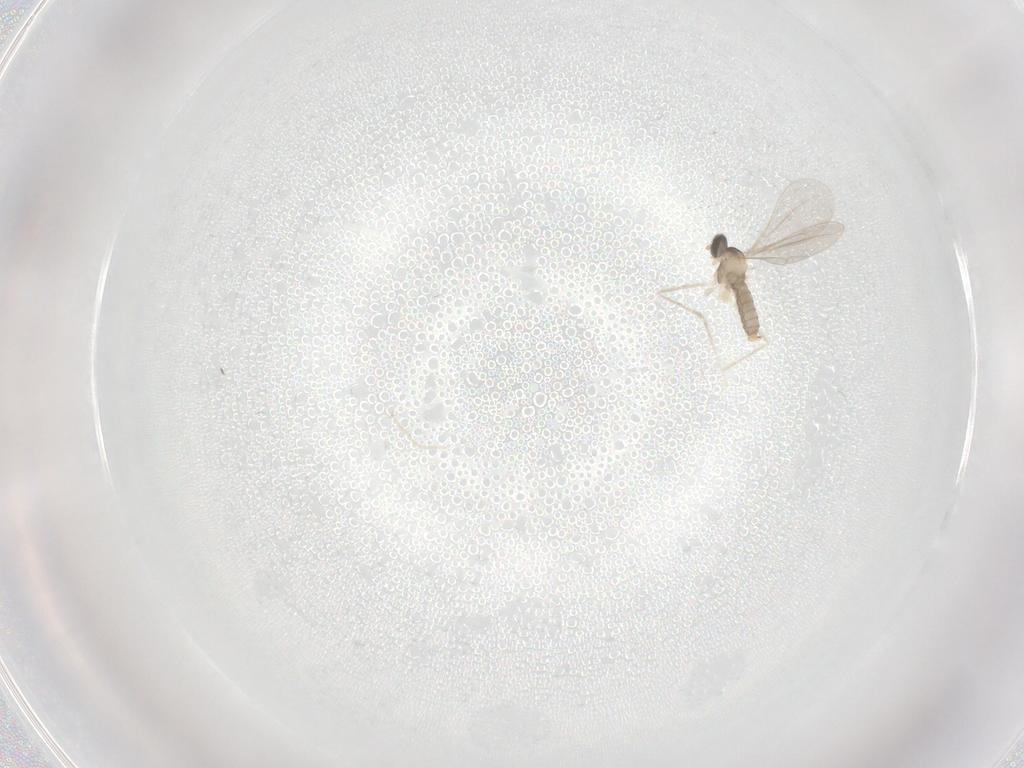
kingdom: Animalia
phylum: Arthropoda
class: Insecta
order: Diptera
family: Cecidomyiidae
